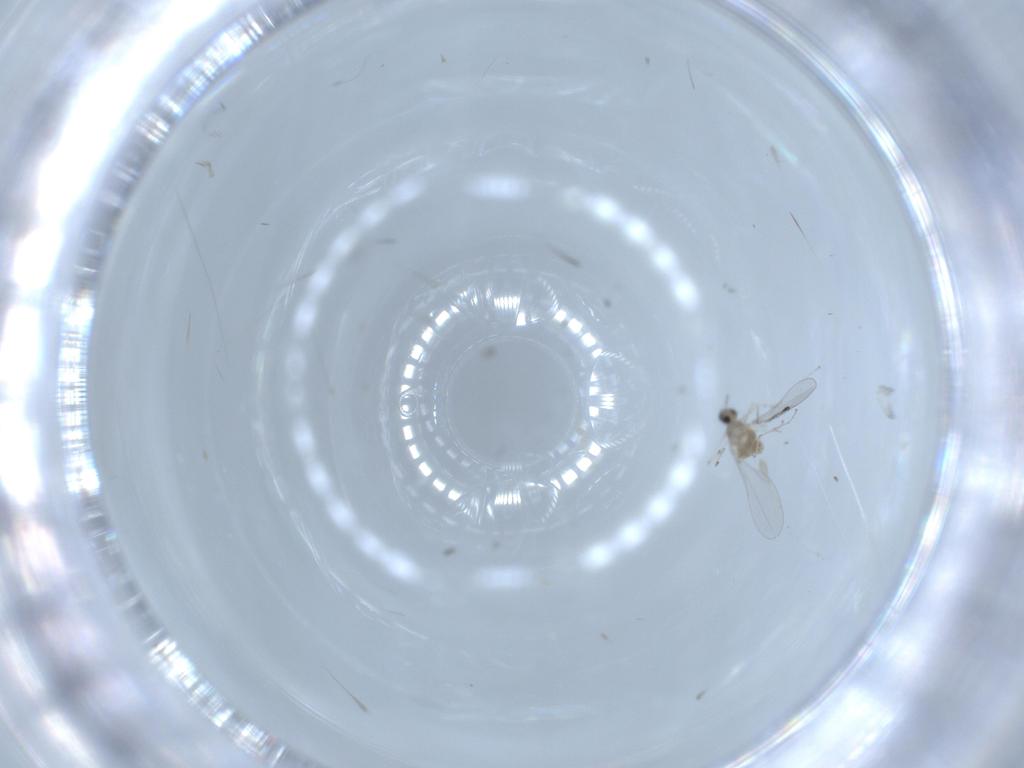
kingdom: Animalia
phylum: Arthropoda
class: Insecta
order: Diptera
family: Cecidomyiidae
